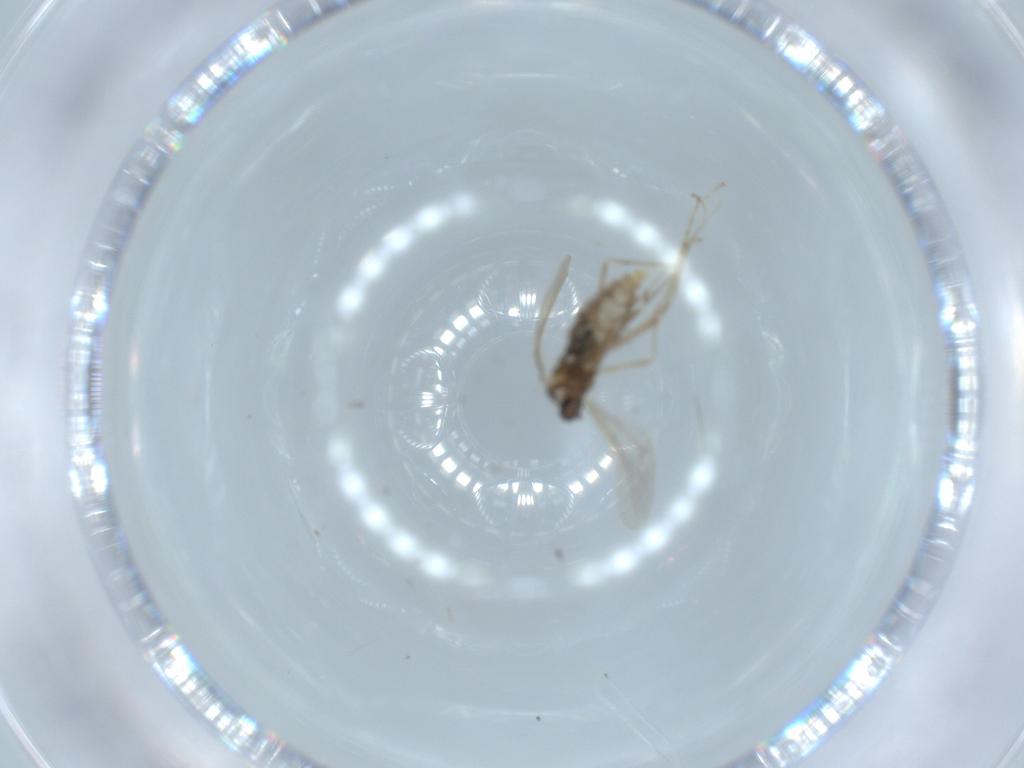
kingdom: Animalia
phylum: Arthropoda
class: Insecta
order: Diptera
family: Cecidomyiidae
